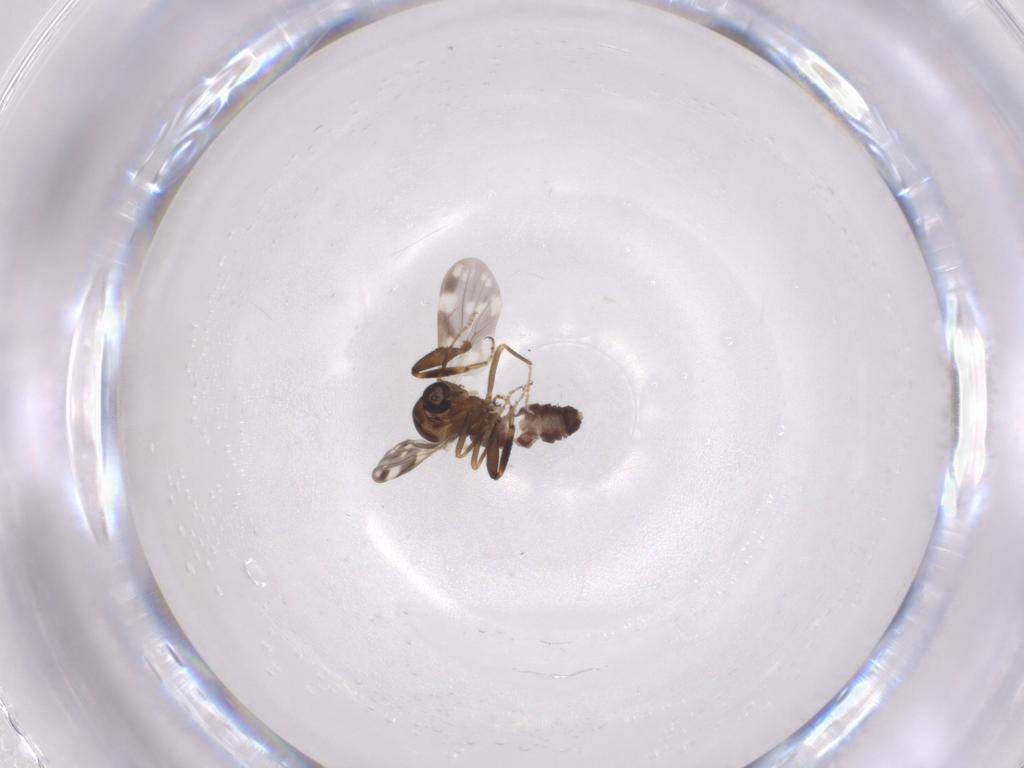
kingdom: Animalia
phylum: Arthropoda
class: Insecta
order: Diptera
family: Ceratopogonidae
